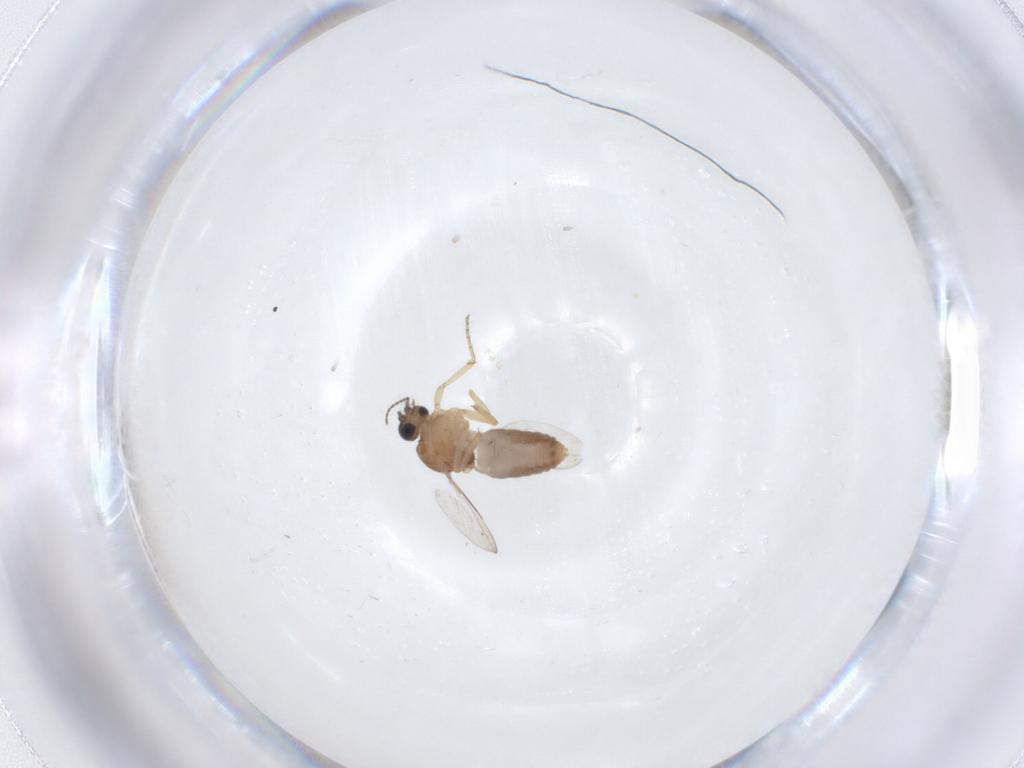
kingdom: Animalia
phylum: Arthropoda
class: Insecta
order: Diptera
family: Ceratopogonidae
